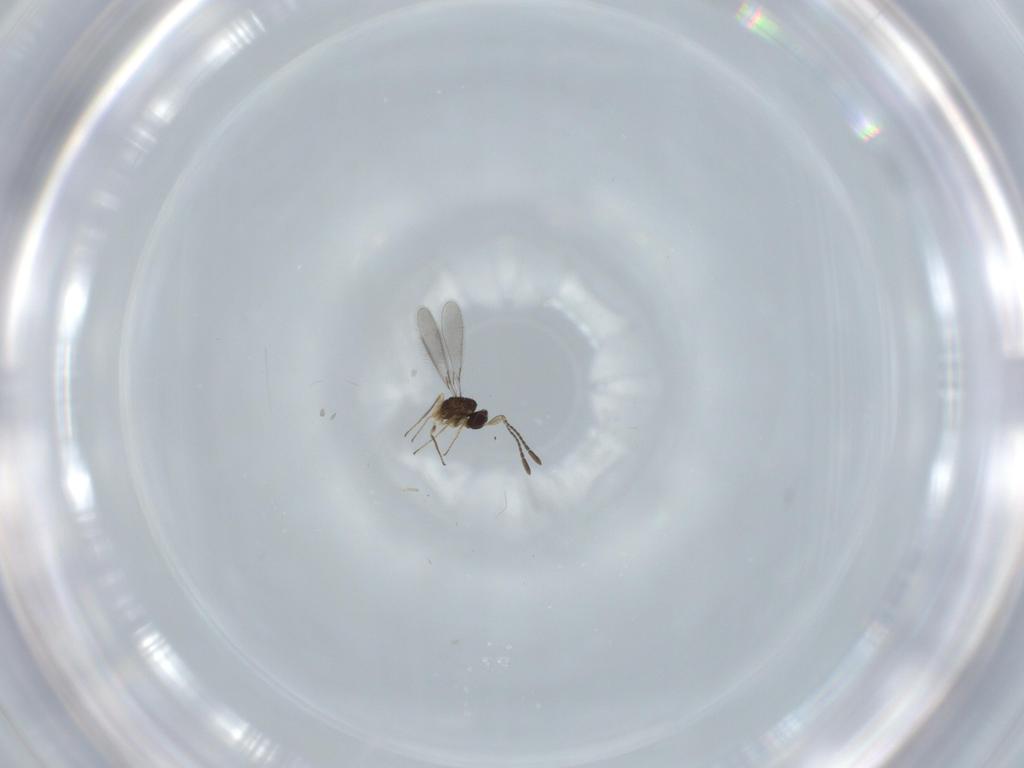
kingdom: Animalia
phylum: Arthropoda
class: Insecta
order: Hymenoptera
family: Mymaridae
